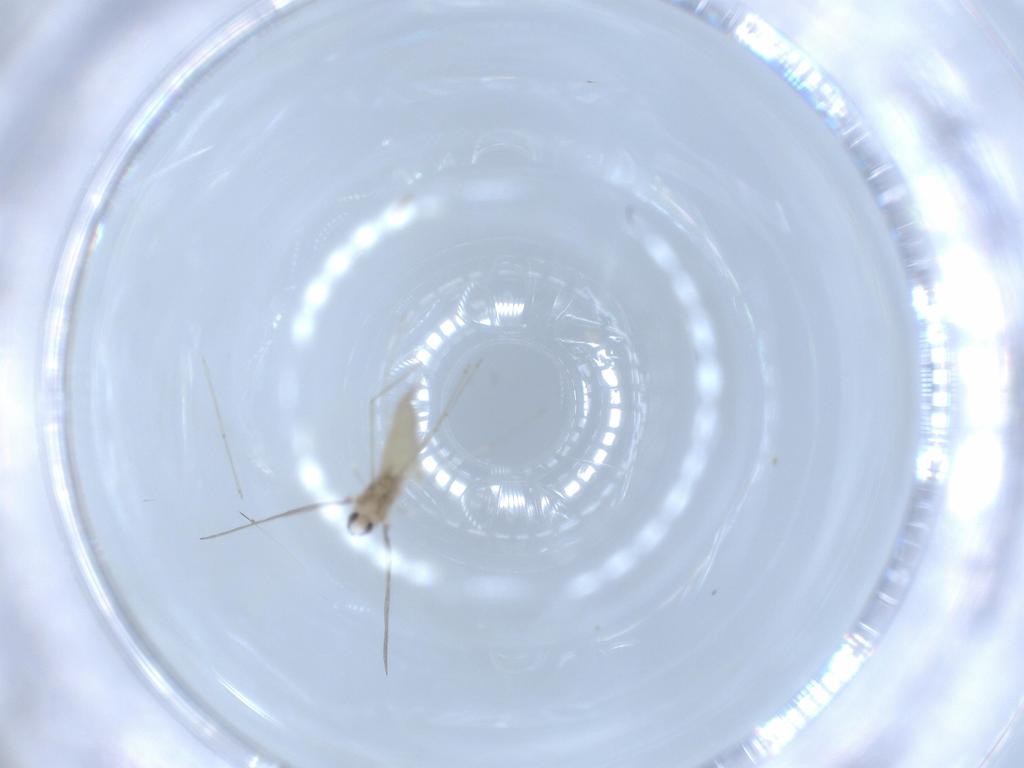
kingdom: Animalia
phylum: Arthropoda
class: Insecta
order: Diptera
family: Cecidomyiidae
